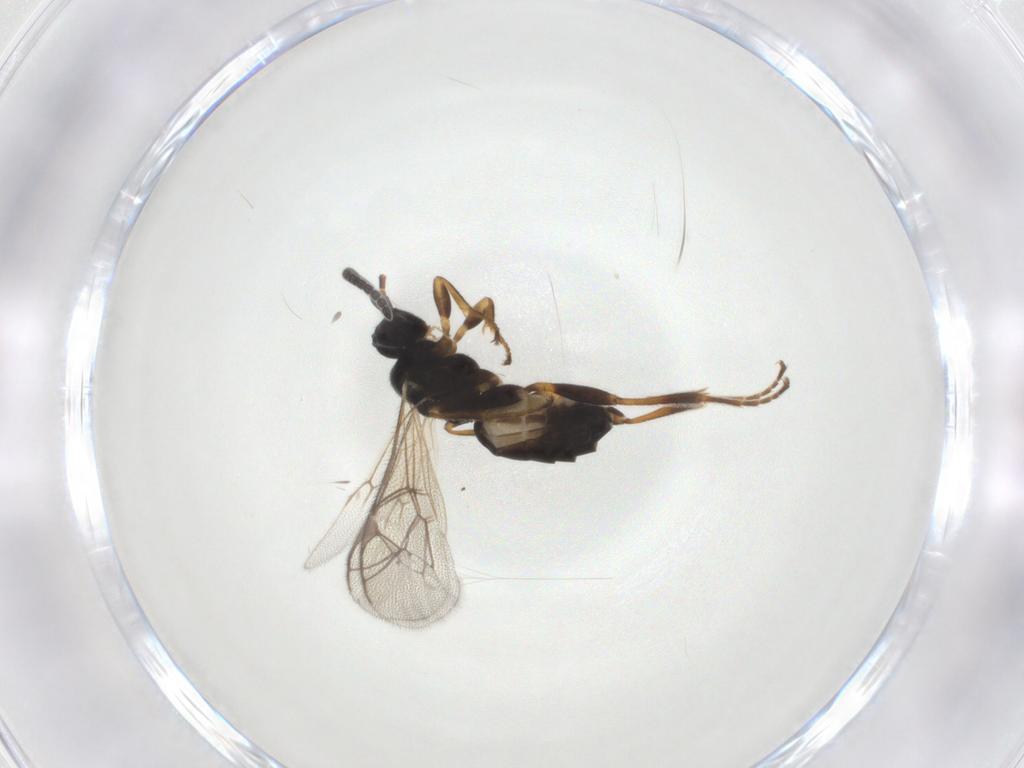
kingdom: Animalia
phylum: Arthropoda
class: Insecta
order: Hymenoptera
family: Ichneumonidae
